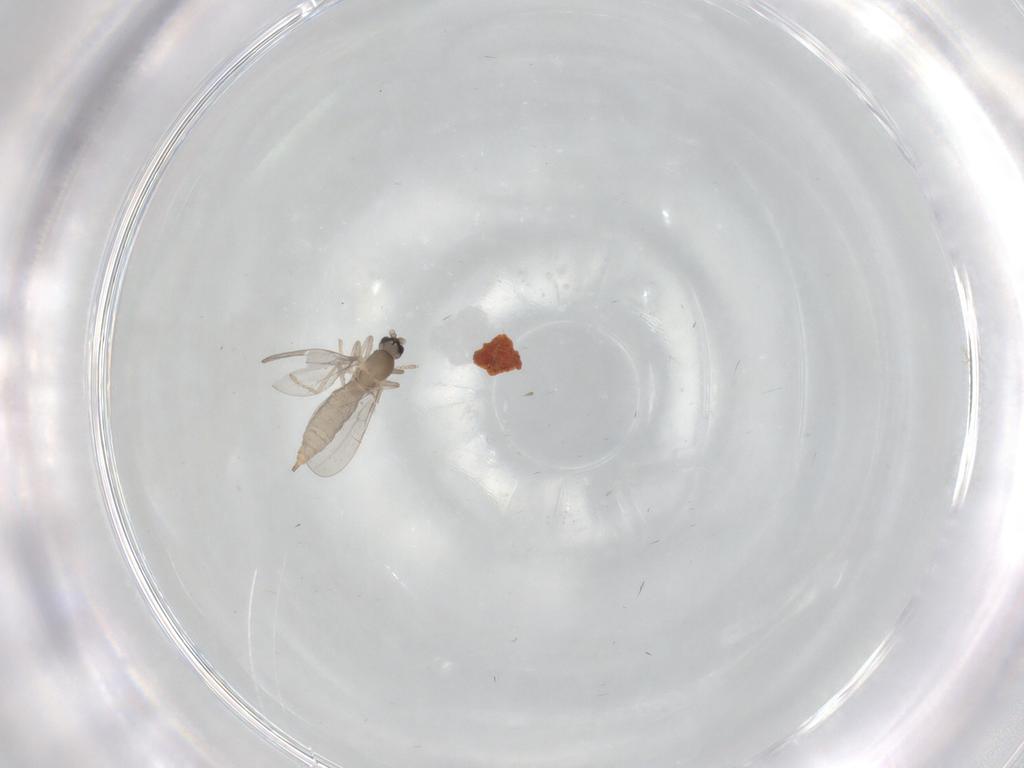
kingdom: Animalia
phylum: Arthropoda
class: Insecta
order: Diptera
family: Cecidomyiidae
